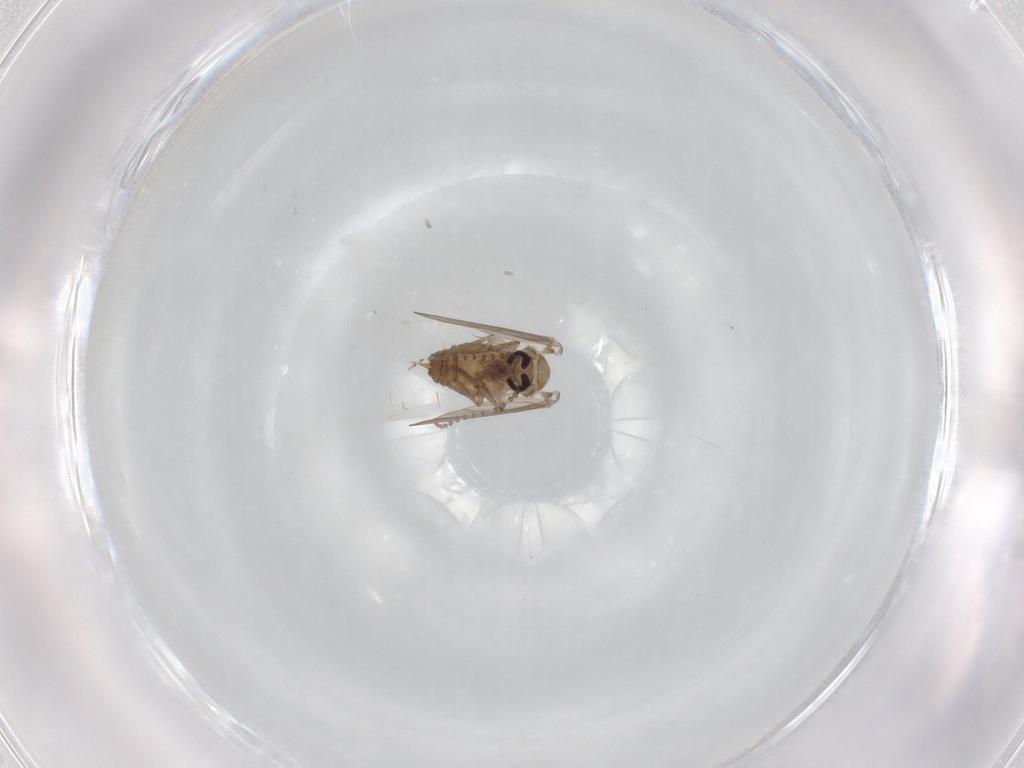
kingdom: Animalia
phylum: Arthropoda
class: Insecta
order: Diptera
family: Psychodidae
